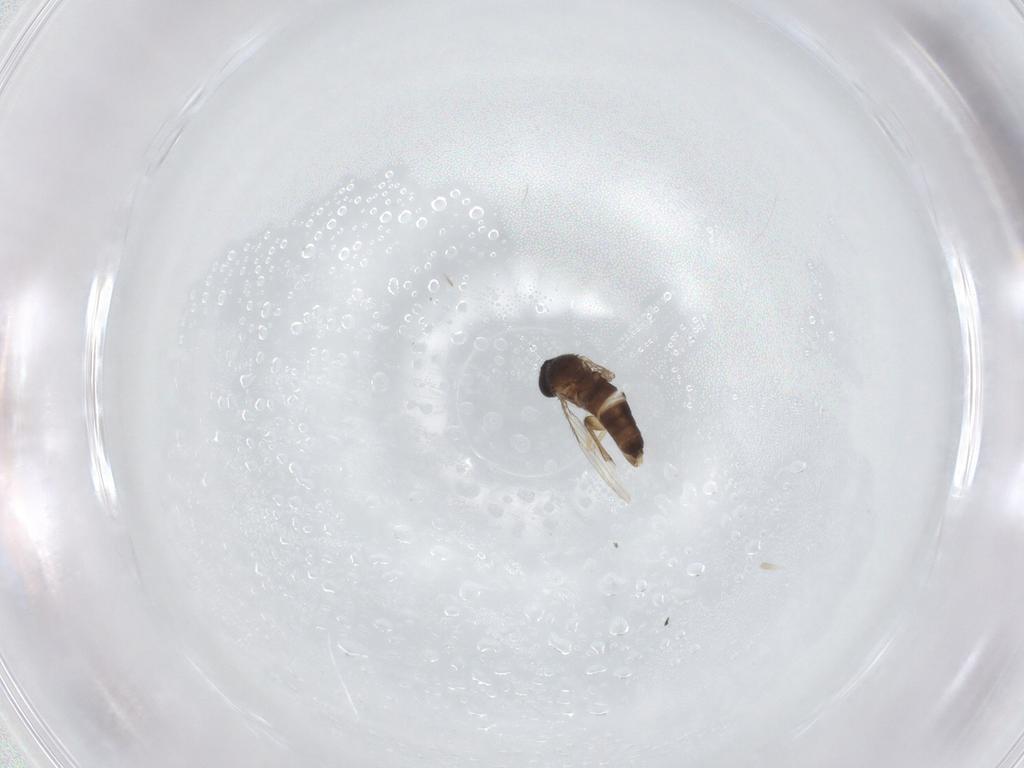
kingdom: Animalia
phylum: Arthropoda
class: Insecta
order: Diptera
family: Phoridae
